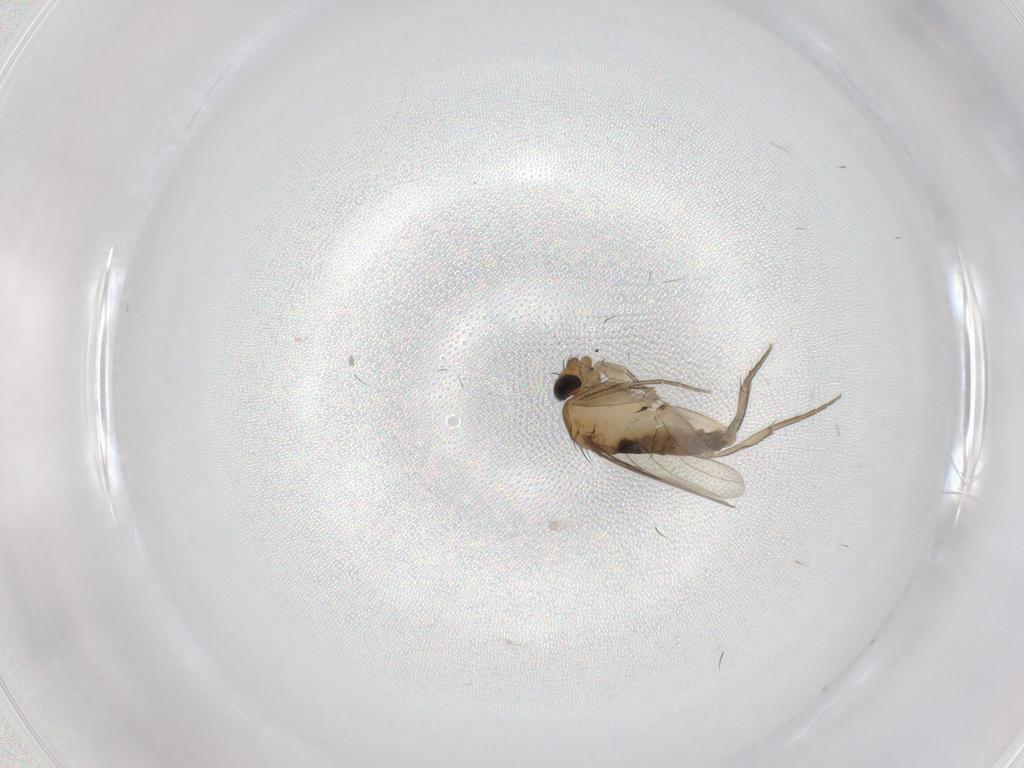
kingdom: Animalia
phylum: Arthropoda
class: Insecta
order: Diptera
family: Phoridae
